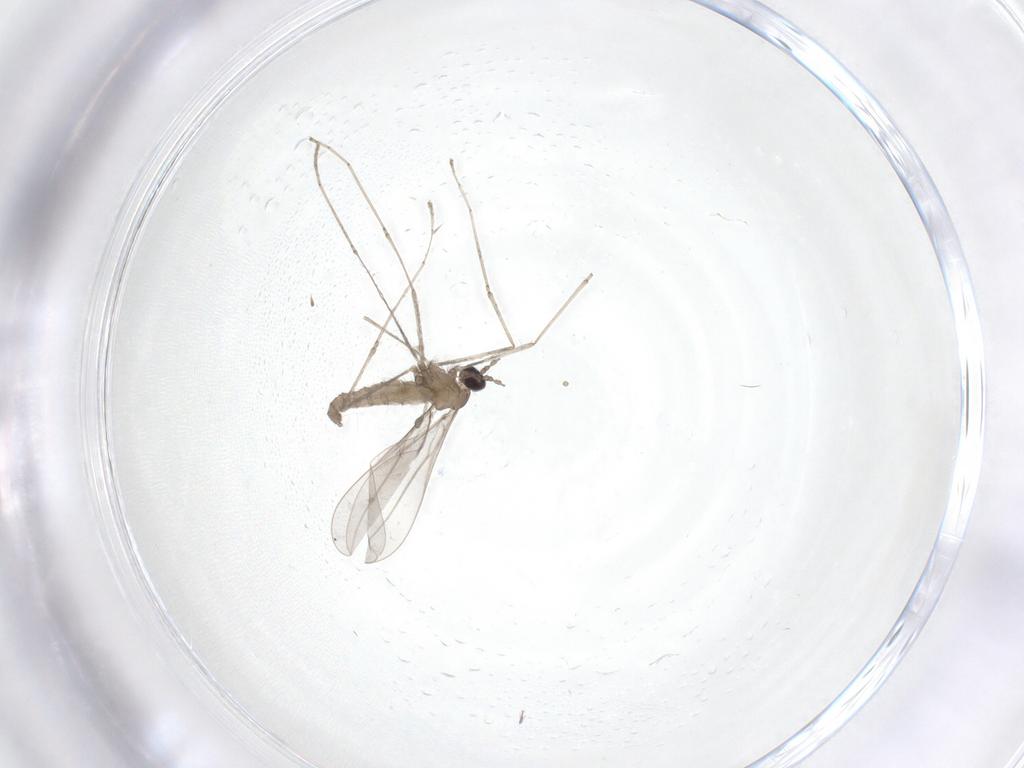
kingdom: Animalia
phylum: Arthropoda
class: Insecta
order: Diptera
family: Cecidomyiidae
